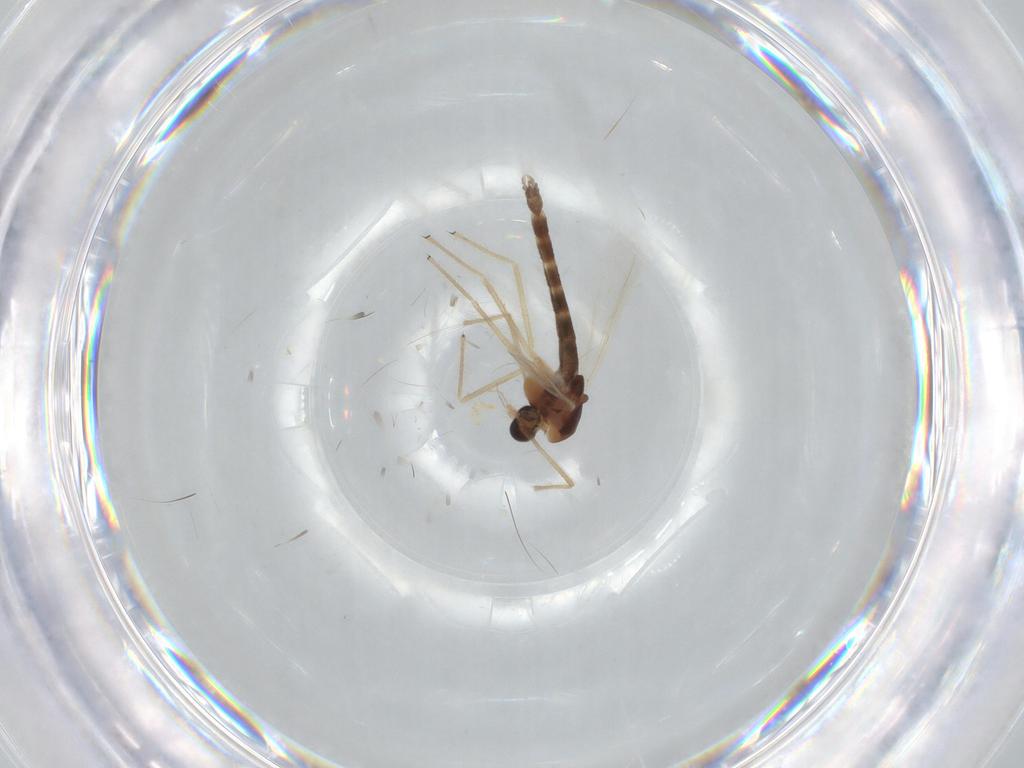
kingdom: Animalia
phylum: Arthropoda
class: Insecta
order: Diptera
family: Chironomidae
